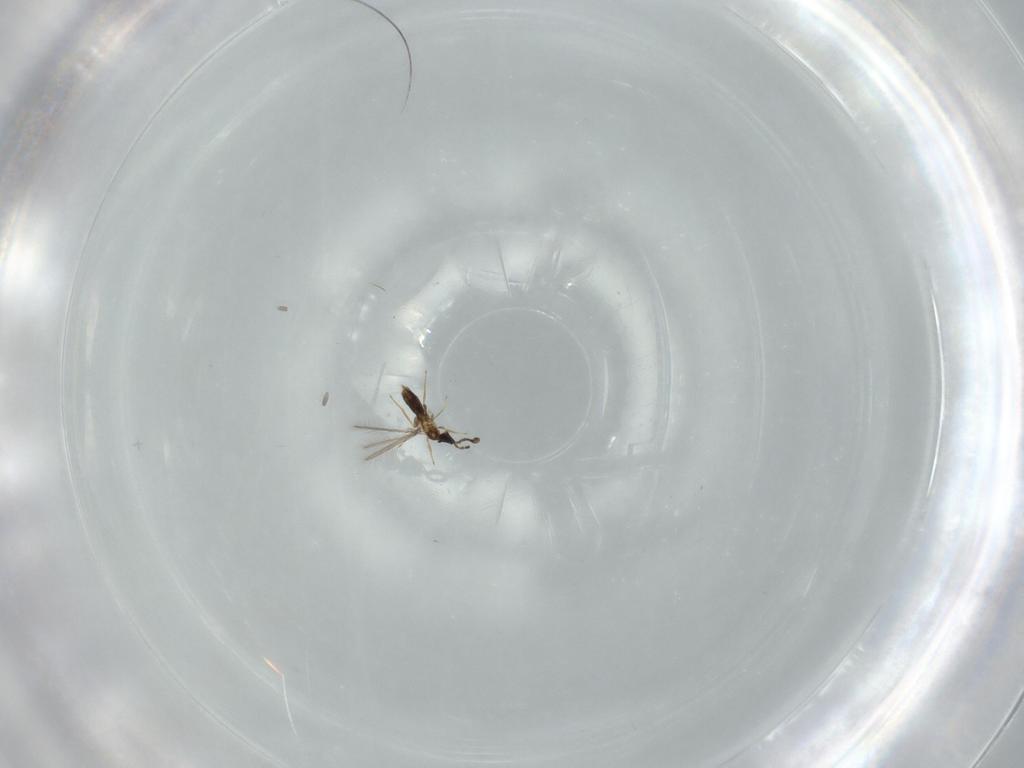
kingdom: Animalia
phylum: Arthropoda
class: Insecta
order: Hymenoptera
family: Mymaridae
